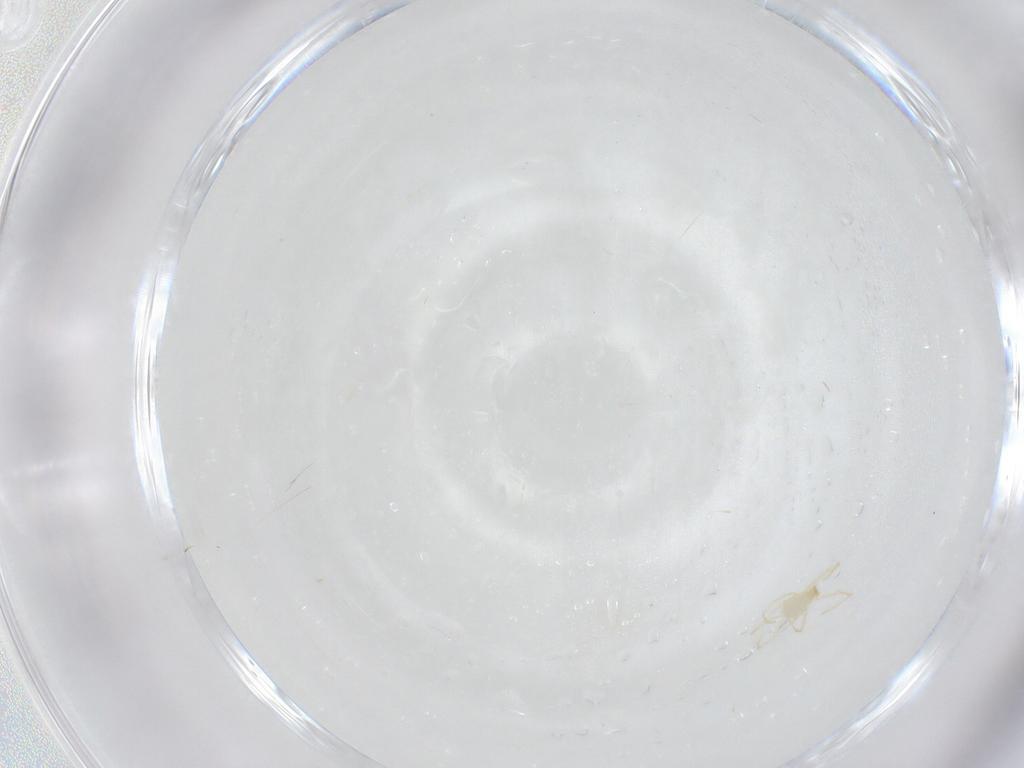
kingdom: Animalia
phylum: Arthropoda
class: Arachnida
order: Trombidiformes
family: Erythraeidae
